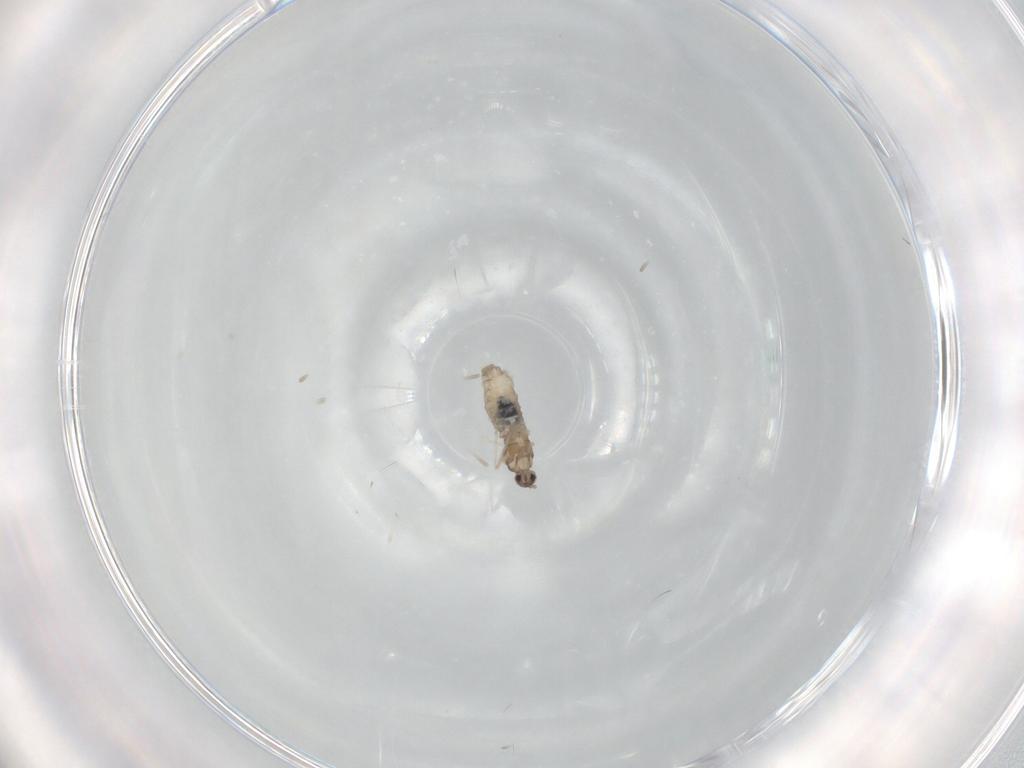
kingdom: Animalia
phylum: Arthropoda
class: Insecta
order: Diptera
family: Cecidomyiidae
